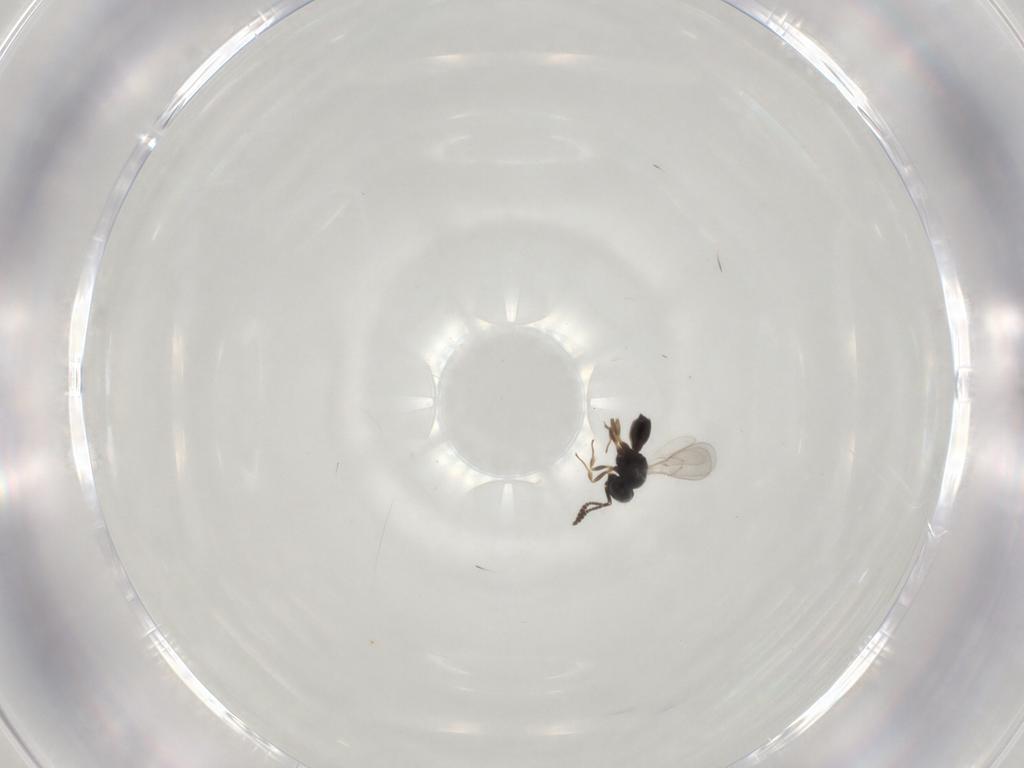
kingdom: Animalia
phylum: Arthropoda
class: Insecta
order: Hymenoptera
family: Scelionidae
